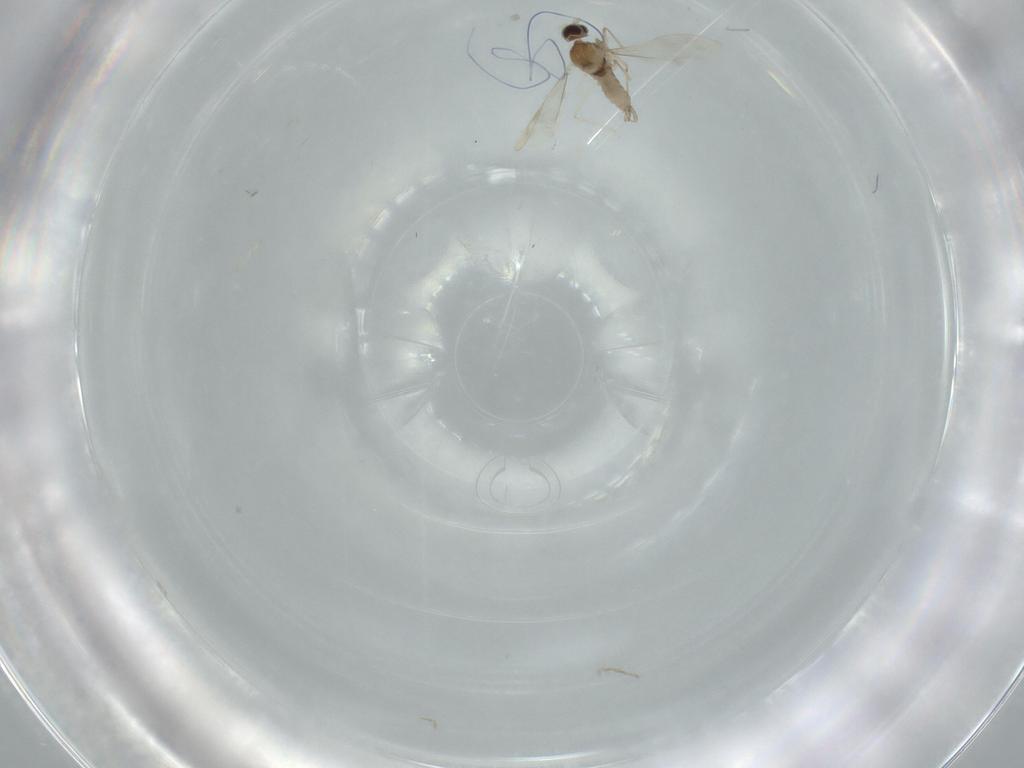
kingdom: Animalia
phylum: Arthropoda
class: Insecta
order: Diptera
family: Cecidomyiidae
